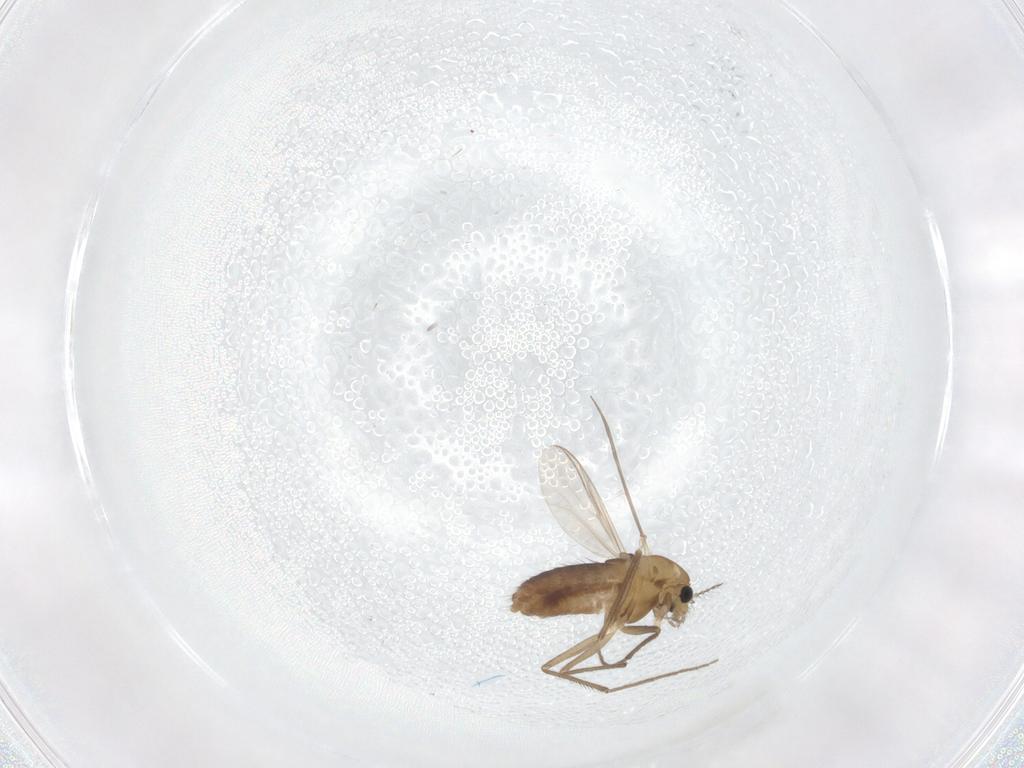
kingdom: Animalia
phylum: Arthropoda
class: Insecta
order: Diptera
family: Chironomidae
